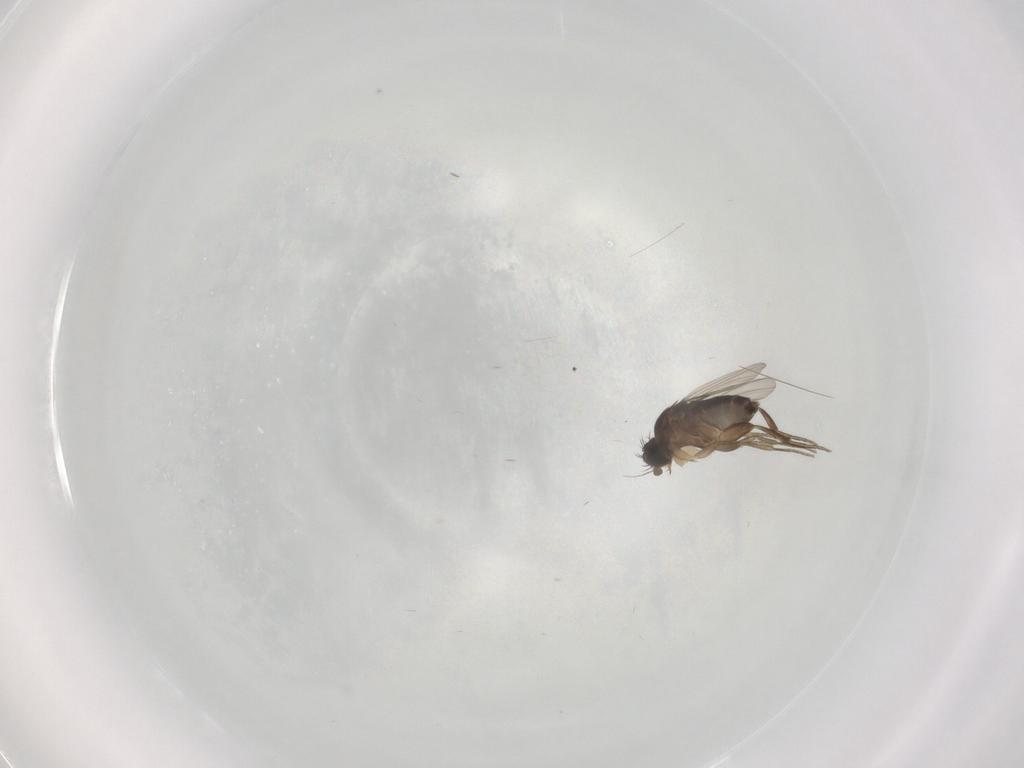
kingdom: Animalia
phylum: Arthropoda
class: Insecta
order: Diptera
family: Phoridae
